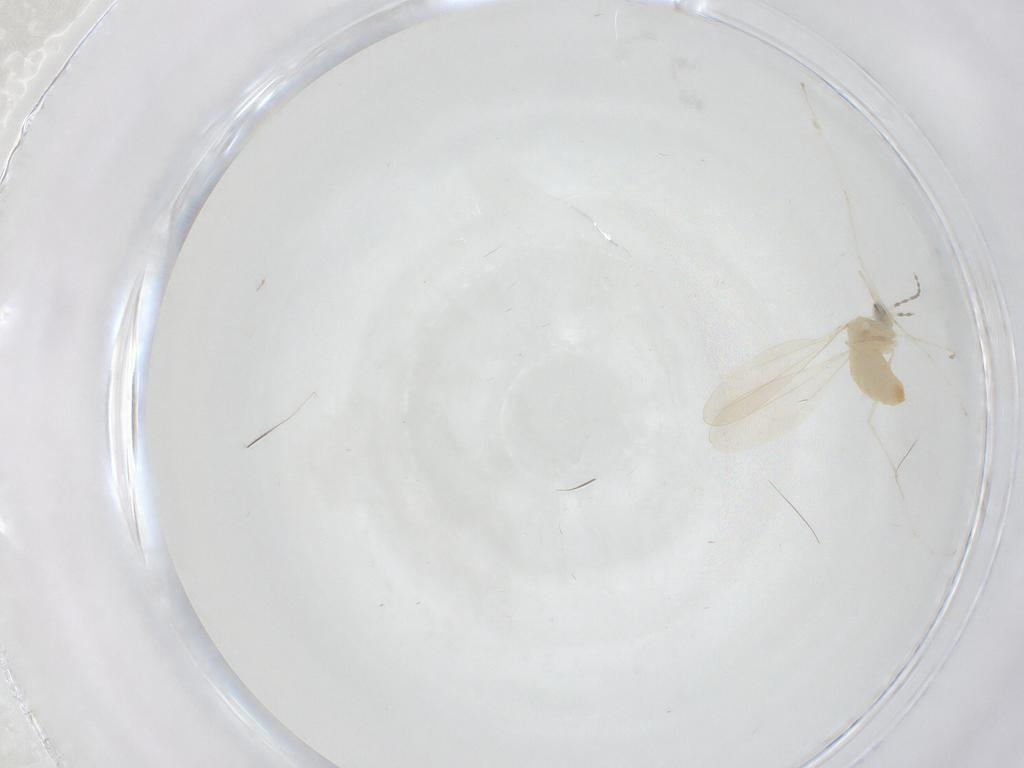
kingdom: Animalia
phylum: Arthropoda
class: Insecta
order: Diptera
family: Cecidomyiidae
